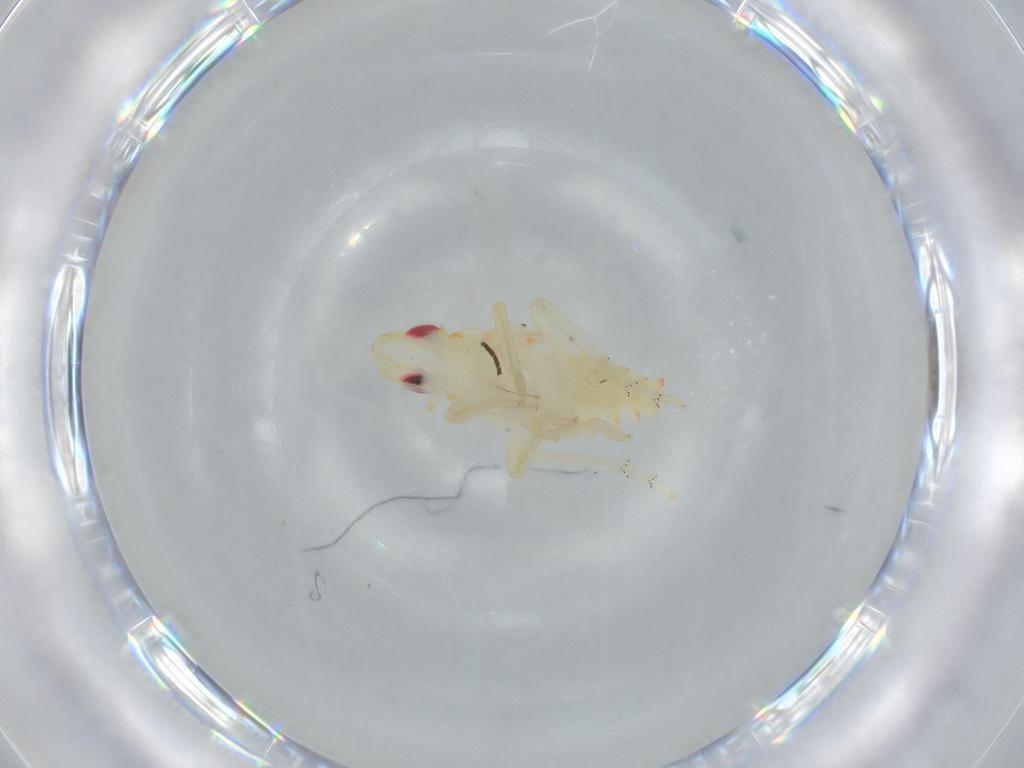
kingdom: Animalia
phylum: Arthropoda
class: Insecta
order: Hemiptera
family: Tropiduchidae
